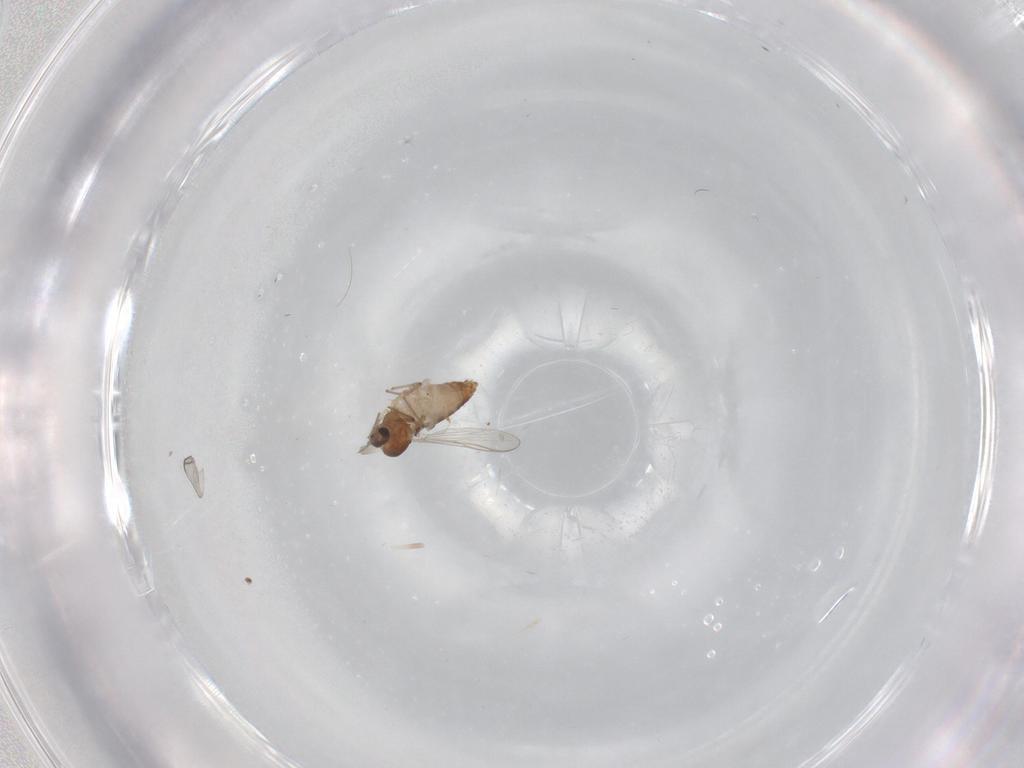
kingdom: Animalia
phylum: Arthropoda
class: Insecta
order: Diptera
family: Chironomidae
